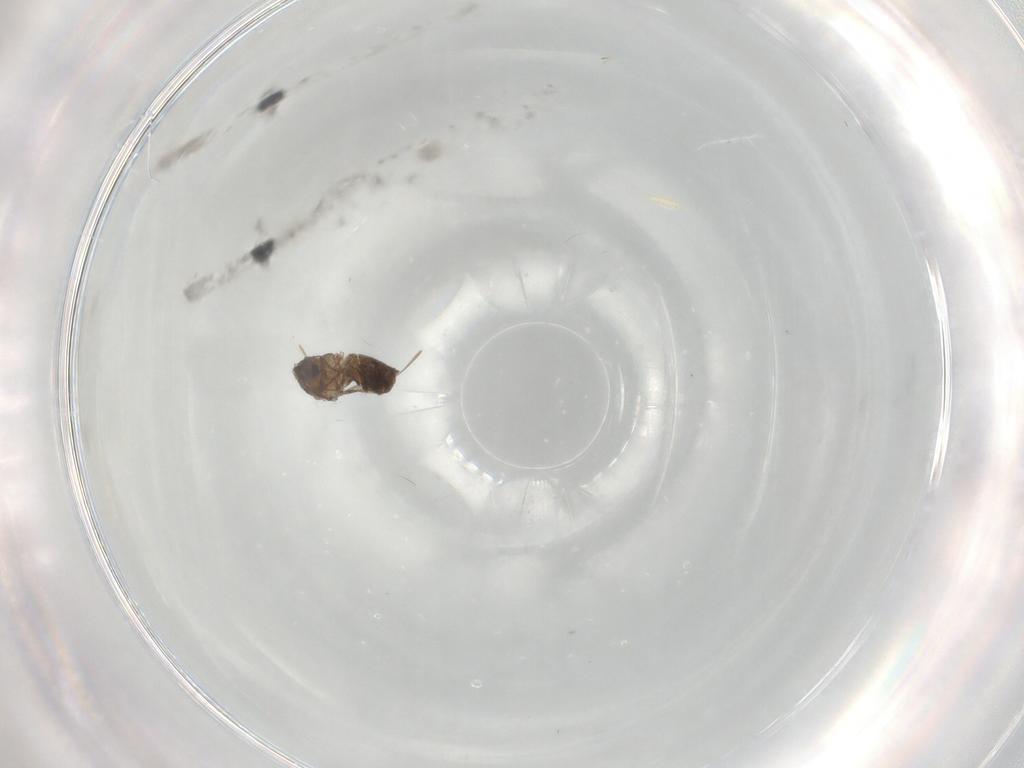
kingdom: Animalia
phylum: Arthropoda
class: Insecta
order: Diptera
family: Chironomidae
